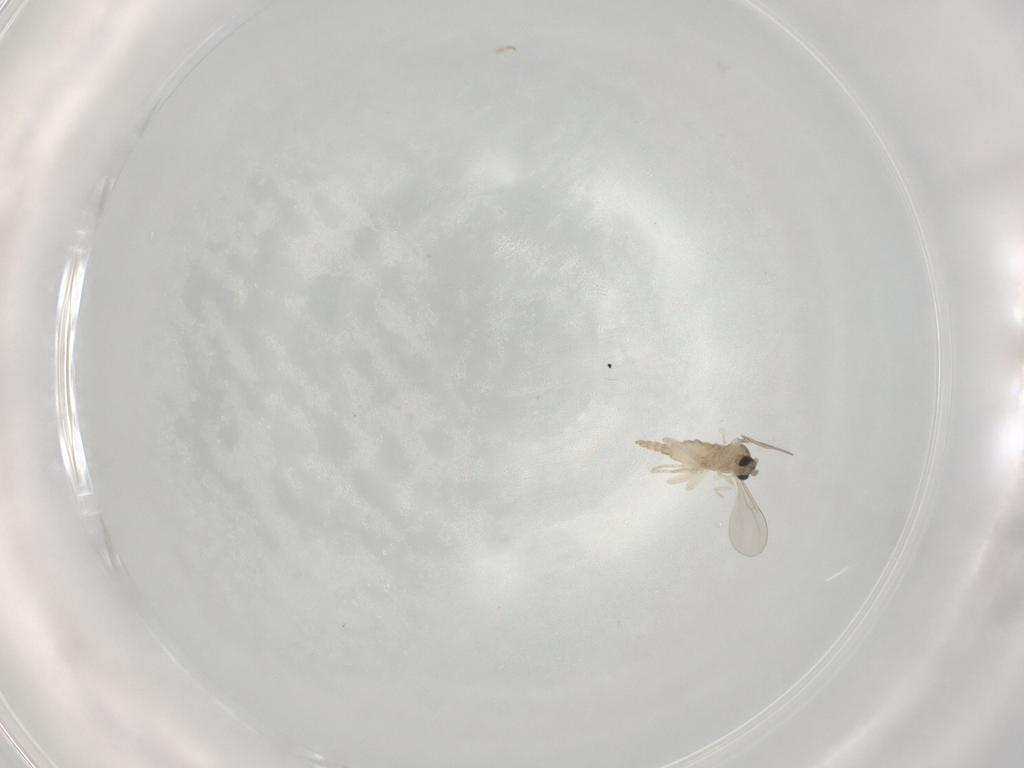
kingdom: Animalia
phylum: Arthropoda
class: Insecta
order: Diptera
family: Cecidomyiidae
